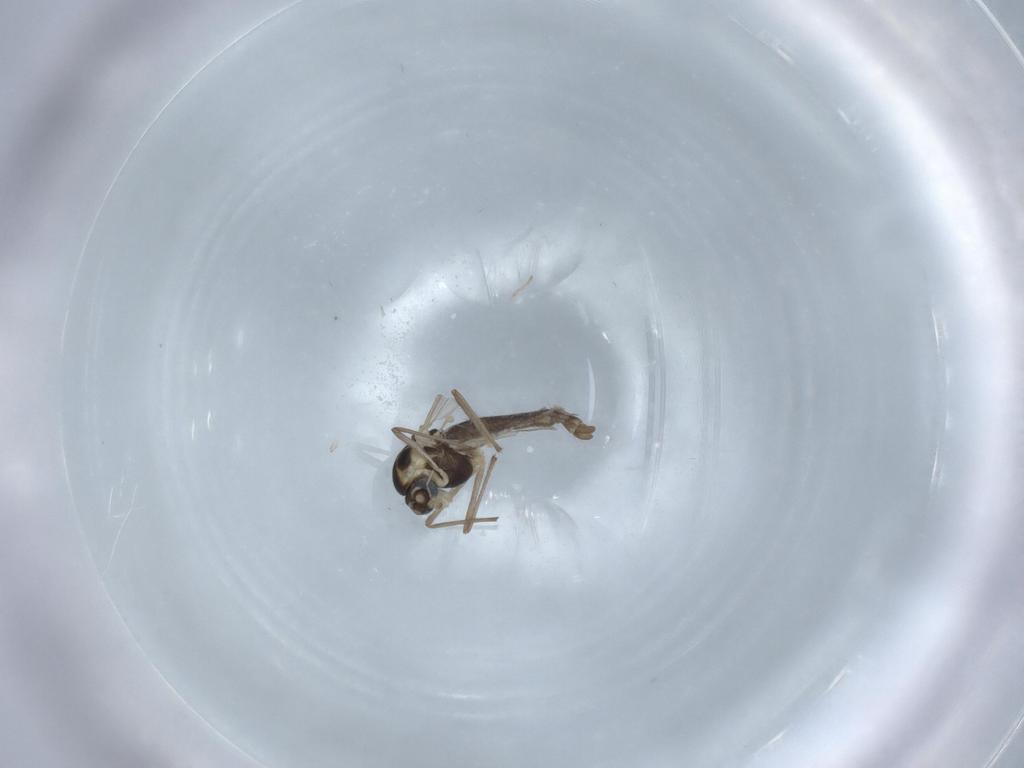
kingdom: Animalia
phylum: Arthropoda
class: Insecta
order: Diptera
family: Chironomidae
